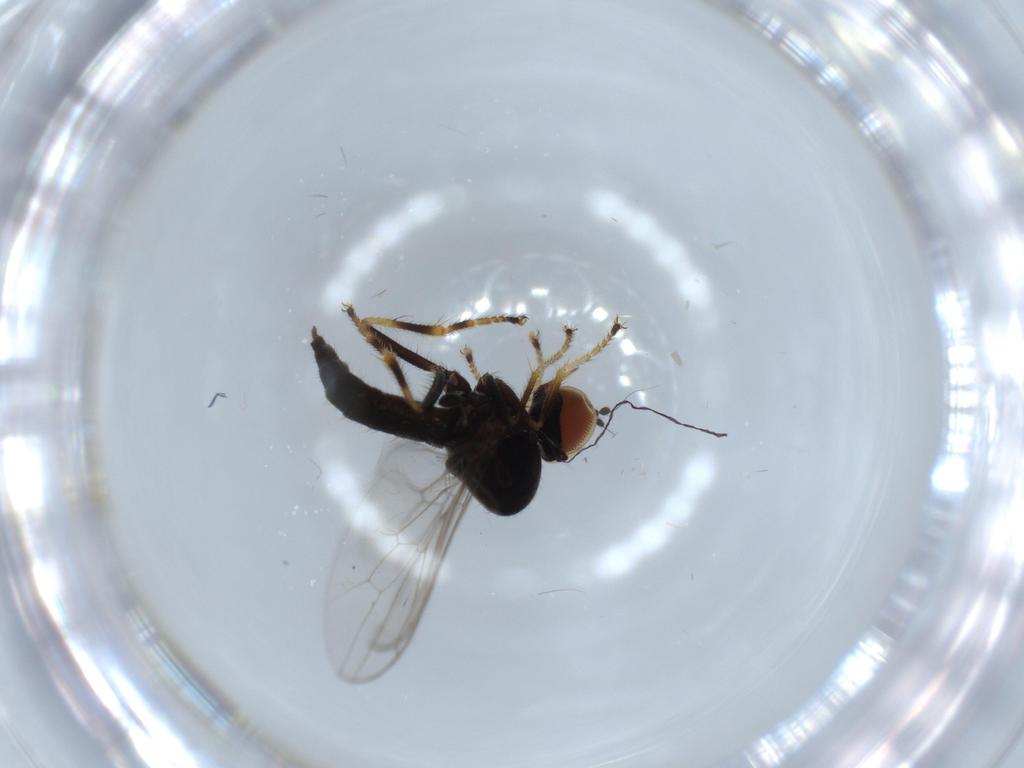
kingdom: Animalia
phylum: Arthropoda
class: Insecta
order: Diptera
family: Hybotidae
